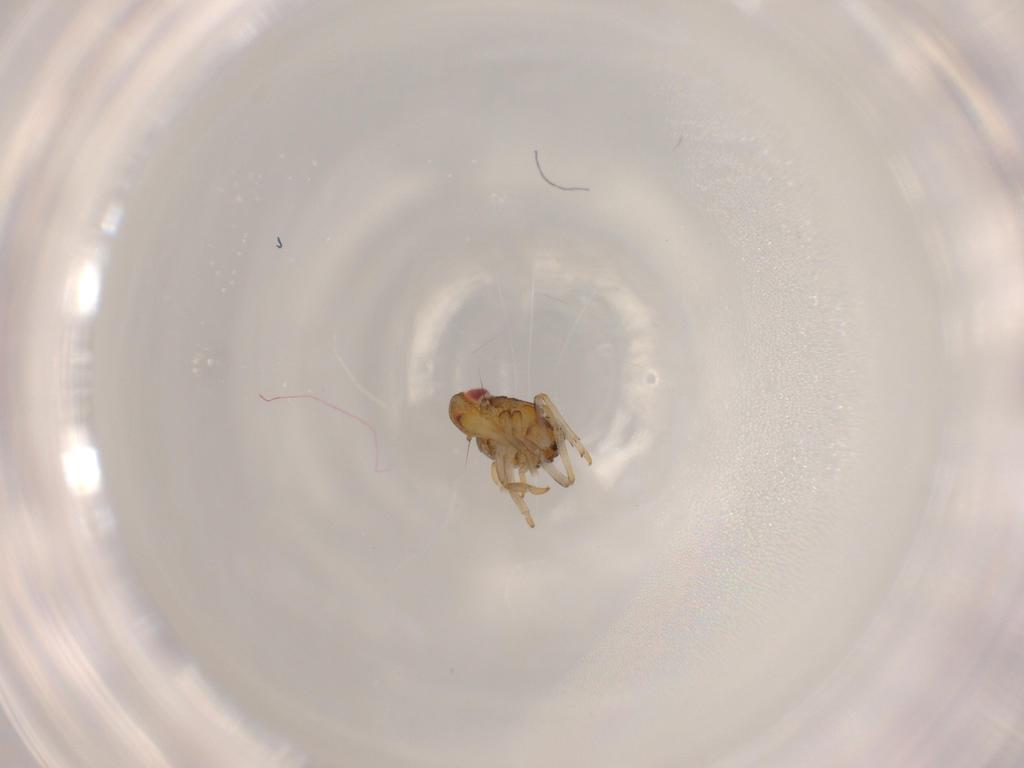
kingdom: Animalia
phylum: Arthropoda
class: Insecta
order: Hemiptera
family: Issidae
